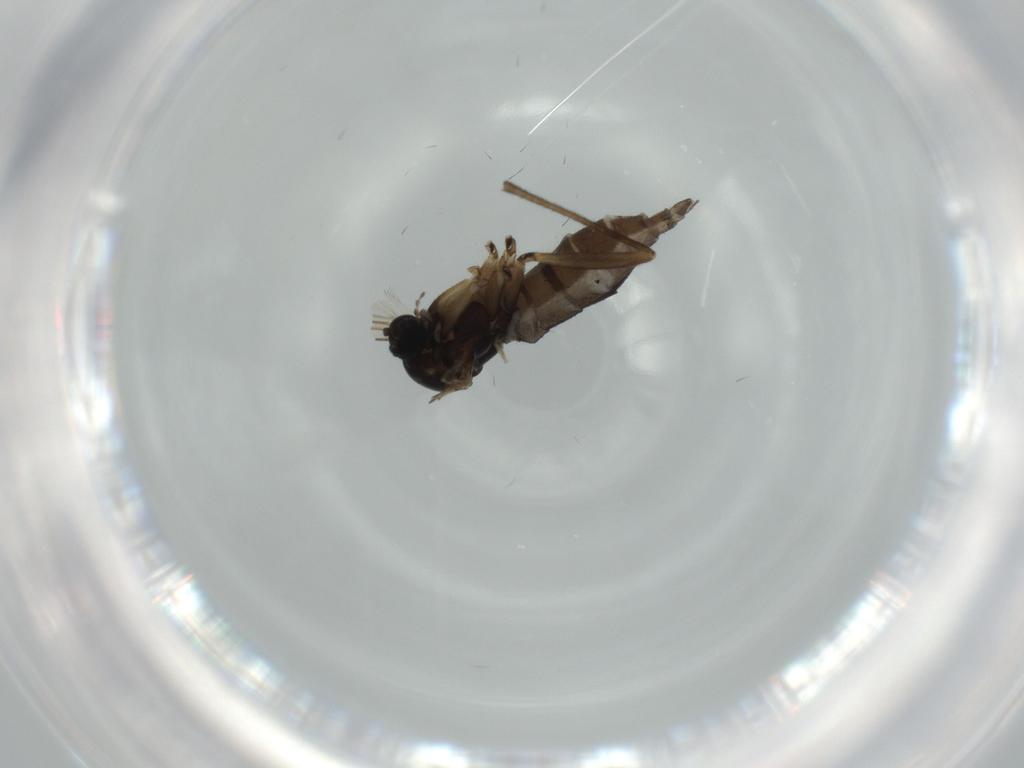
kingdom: Animalia
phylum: Arthropoda
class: Insecta
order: Diptera
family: Sciaridae
